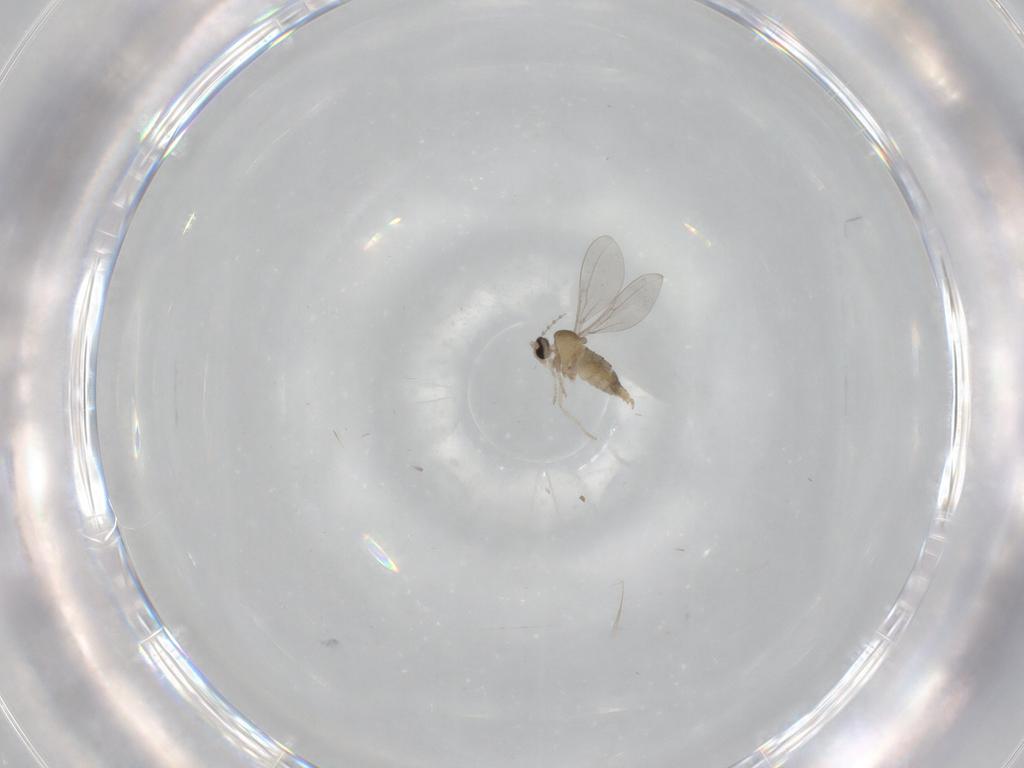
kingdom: Animalia
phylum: Arthropoda
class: Insecta
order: Diptera
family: Cecidomyiidae
